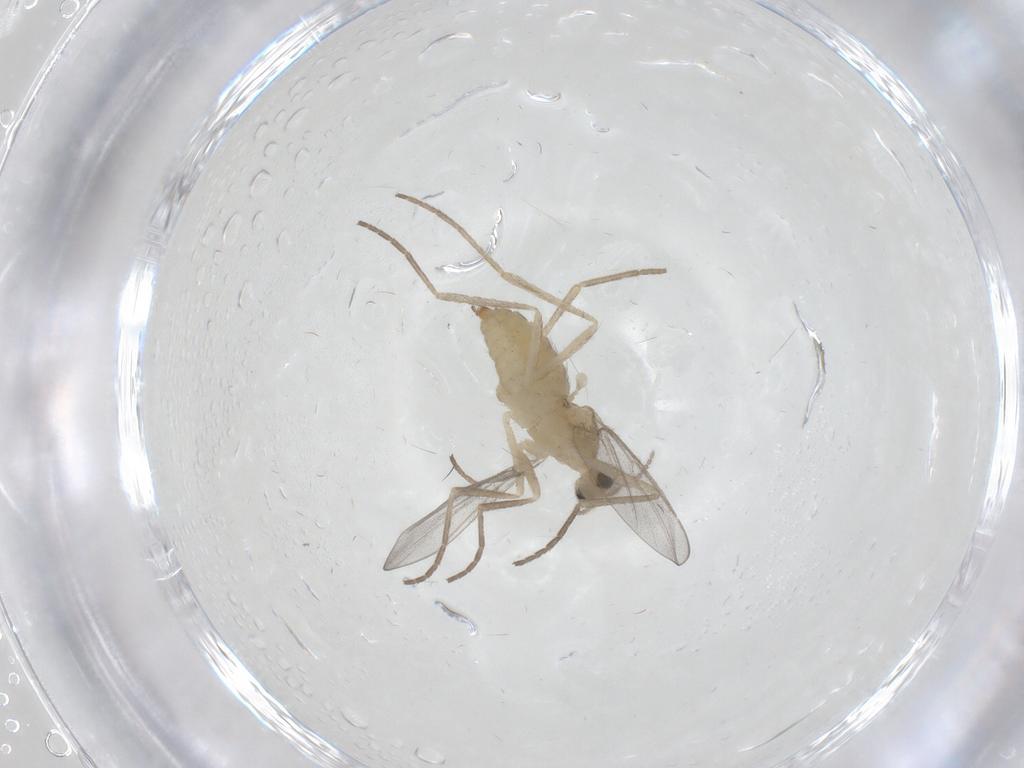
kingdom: Animalia
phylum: Arthropoda
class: Insecta
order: Diptera
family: Cecidomyiidae
